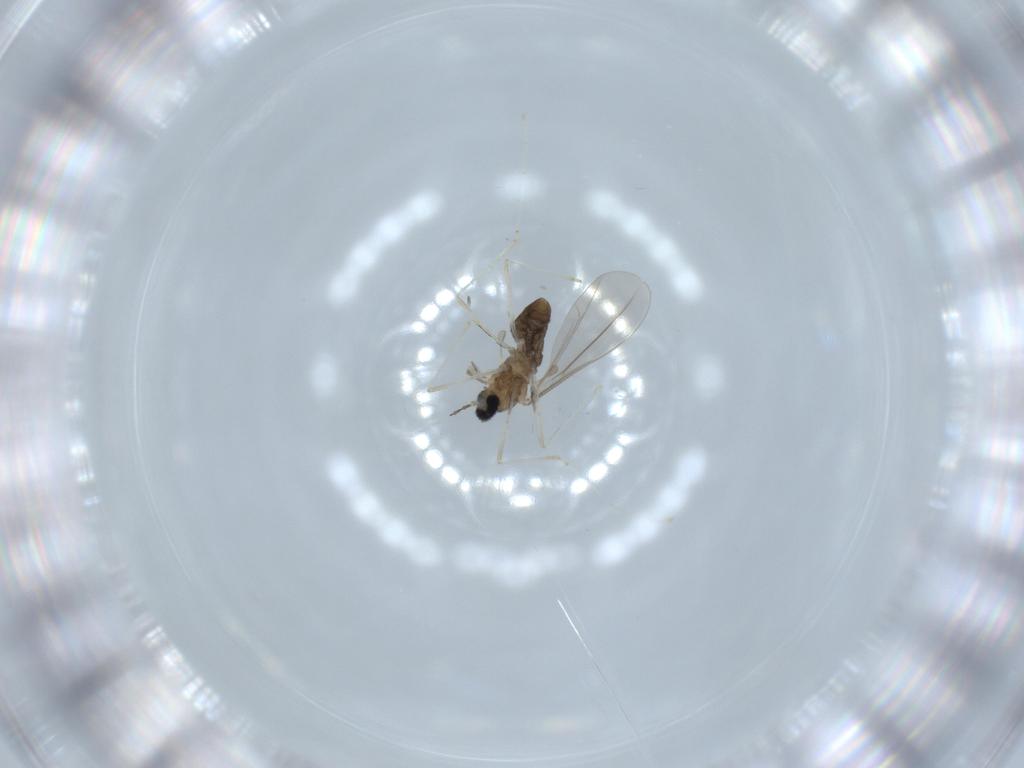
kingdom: Animalia
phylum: Arthropoda
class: Insecta
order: Diptera
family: Cecidomyiidae
